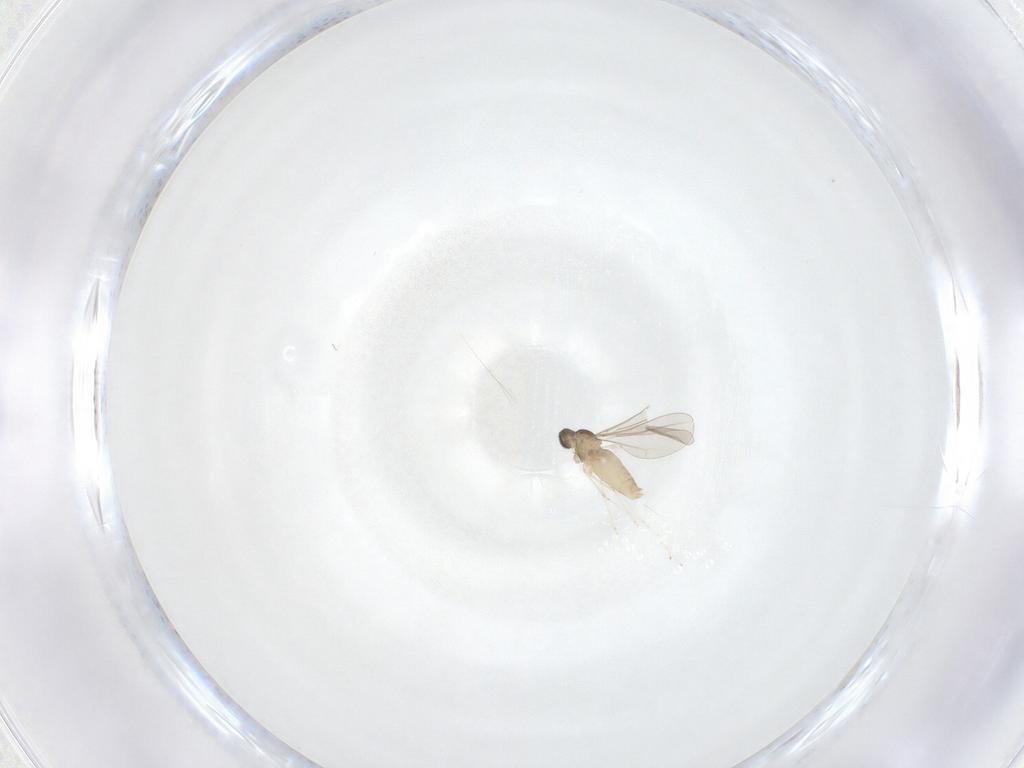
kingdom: Animalia
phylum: Arthropoda
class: Insecta
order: Diptera
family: Cecidomyiidae
